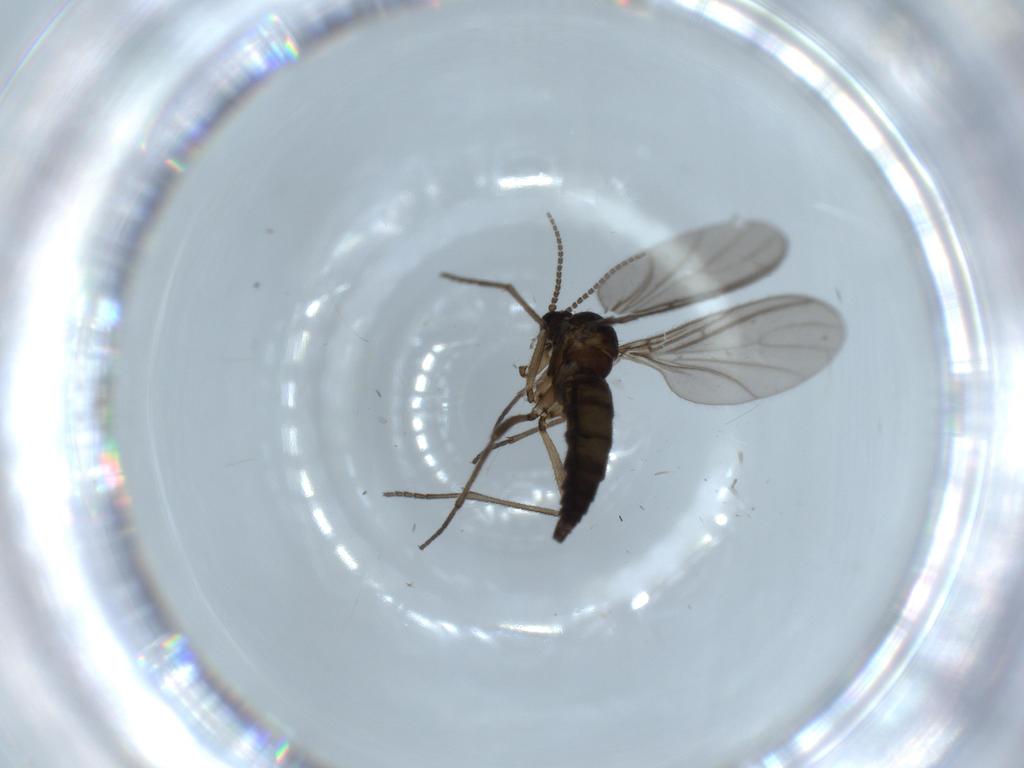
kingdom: Animalia
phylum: Arthropoda
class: Insecta
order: Diptera
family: Sciaridae
